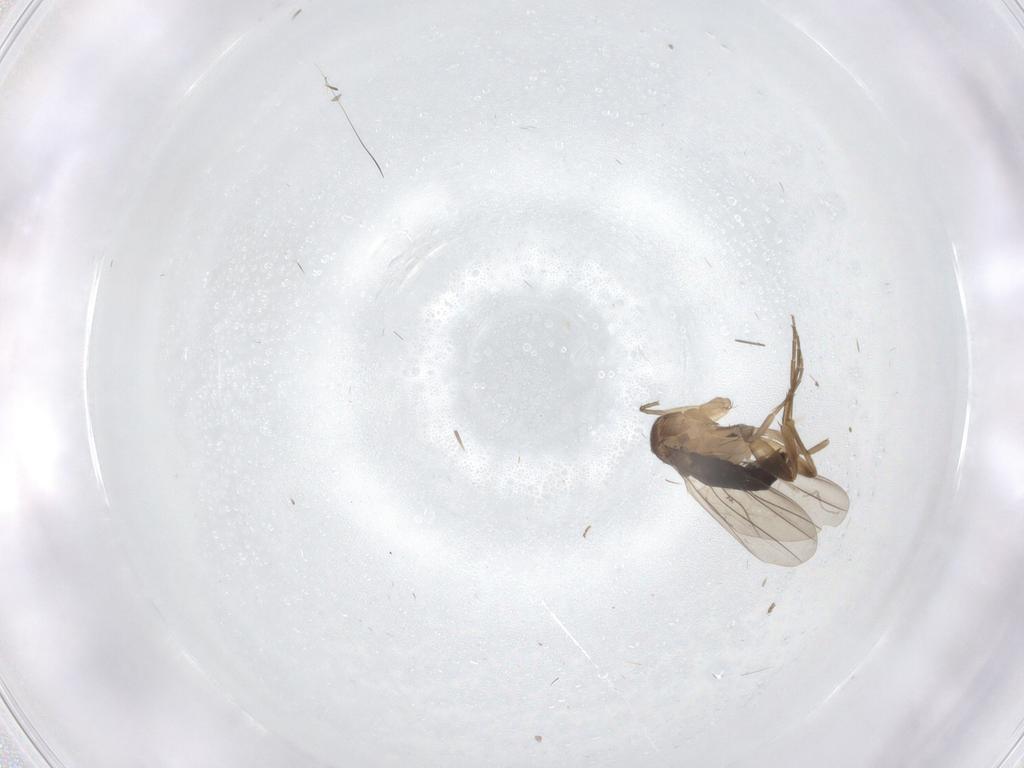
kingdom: Animalia
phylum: Arthropoda
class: Insecta
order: Diptera
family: Phoridae
